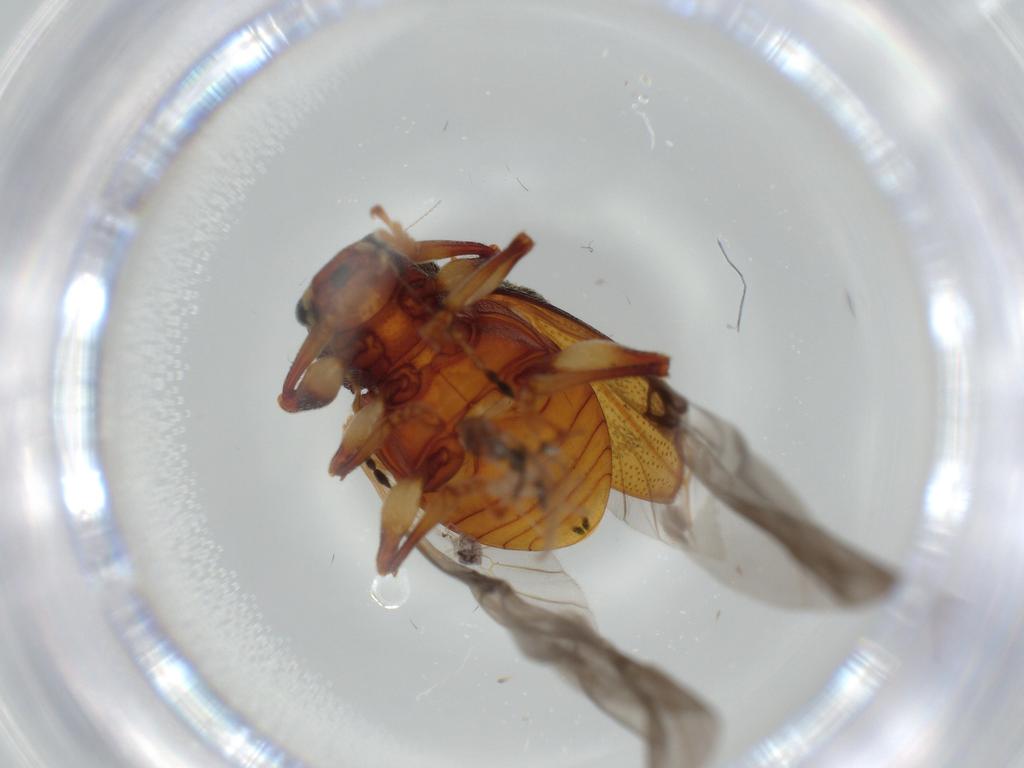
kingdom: Animalia
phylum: Arthropoda
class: Insecta
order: Coleoptera
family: Chrysomelidae
